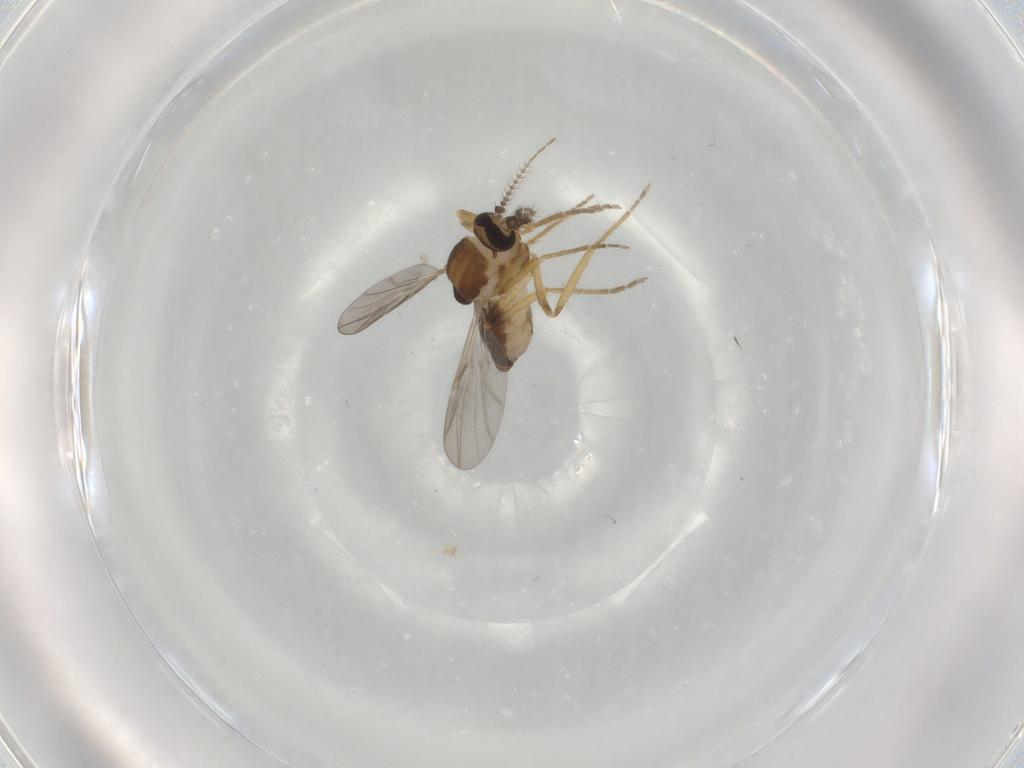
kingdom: Animalia
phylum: Arthropoda
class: Insecta
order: Diptera
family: Ceratopogonidae
